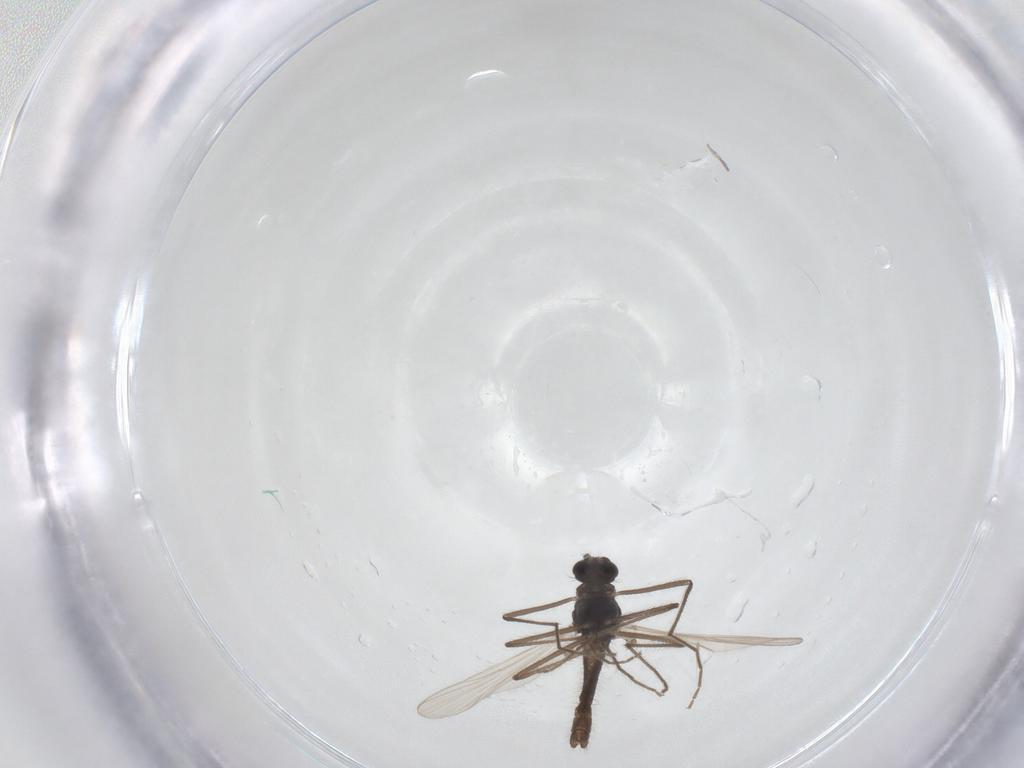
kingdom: Animalia
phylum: Arthropoda
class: Insecta
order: Diptera
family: Chironomidae
